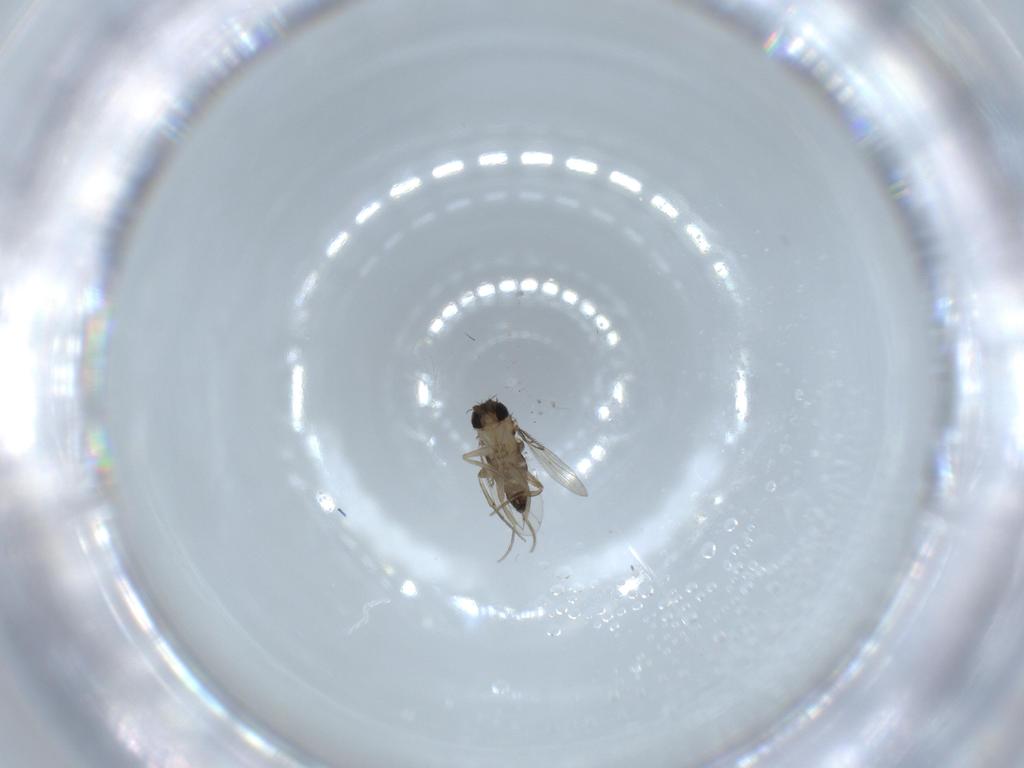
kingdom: Animalia
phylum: Arthropoda
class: Insecta
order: Diptera
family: Phoridae
